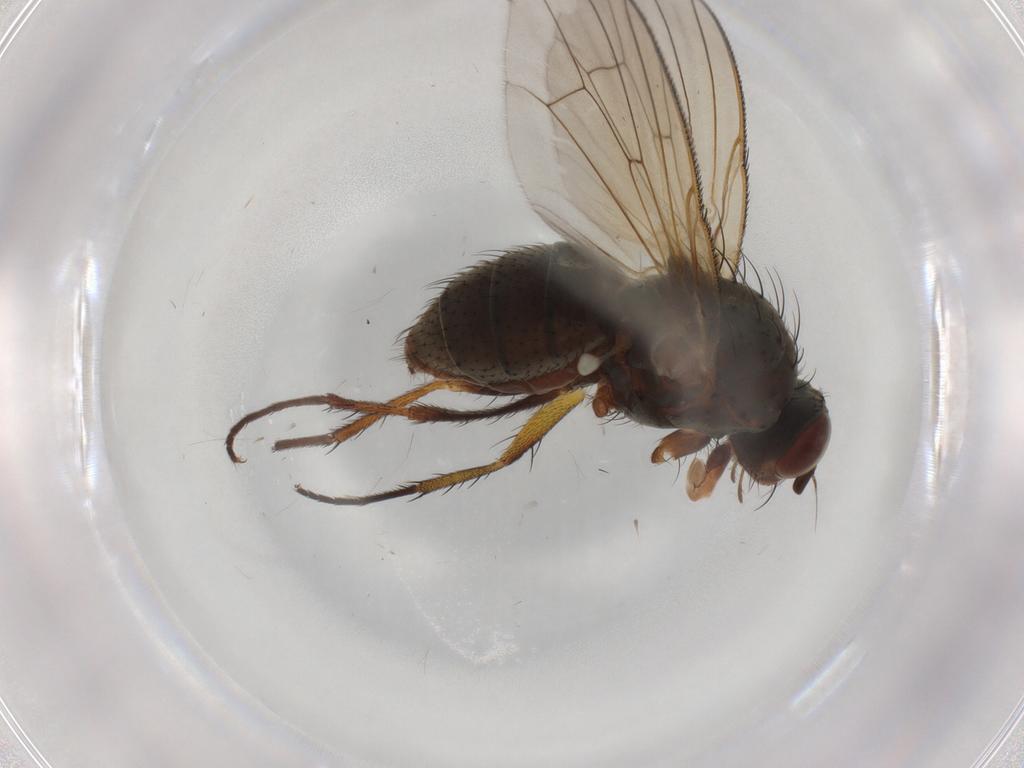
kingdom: Animalia
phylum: Arthropoda
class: Insecta
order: Diptera
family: Anthomyiidae
